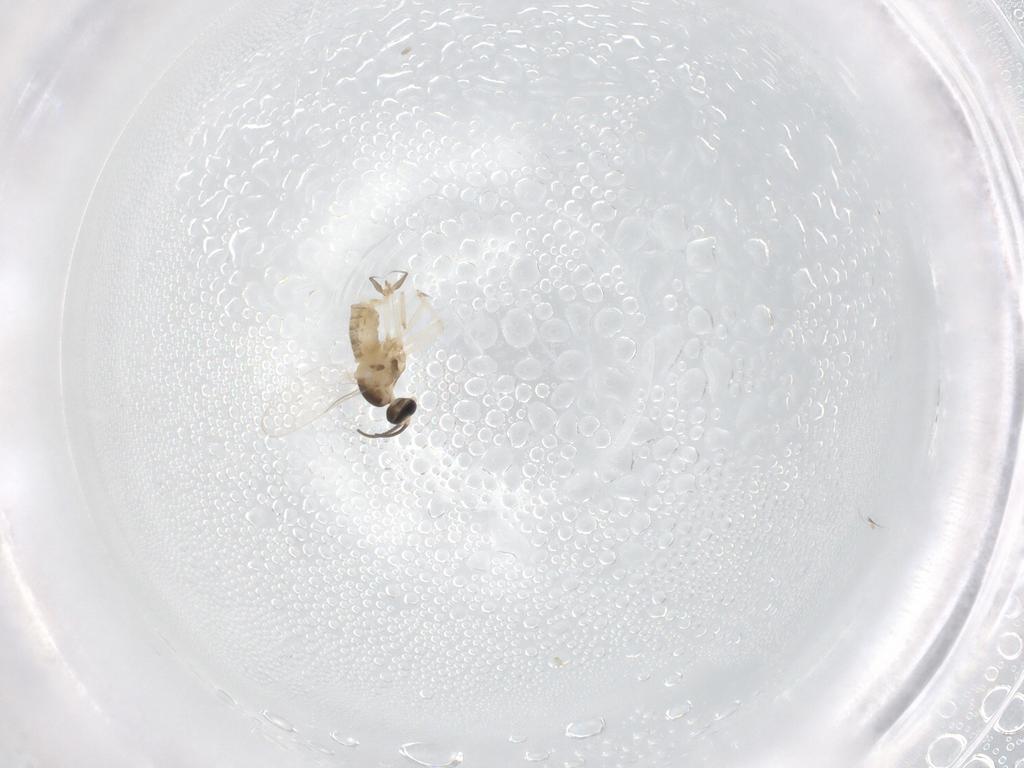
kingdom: Animalia
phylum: Arthropoda
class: Insecta
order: Diptera
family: Cecidomyiidae
